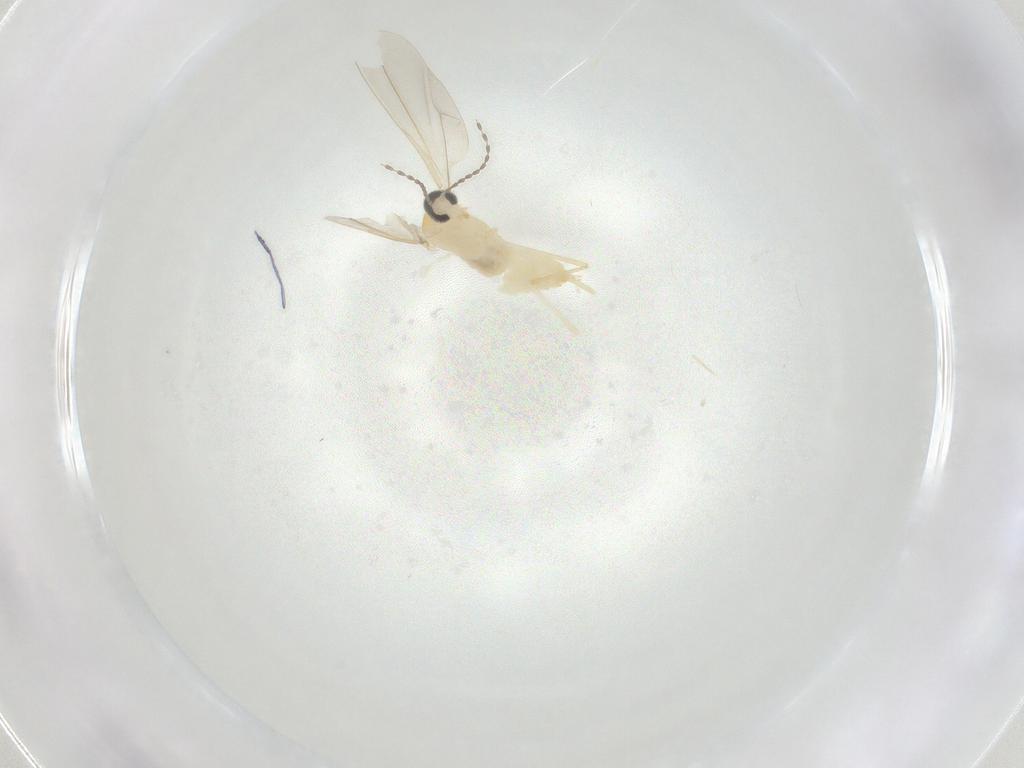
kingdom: Animalia
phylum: Arthropoda
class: Insecta
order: Diptera
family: Cecidomyiidae
